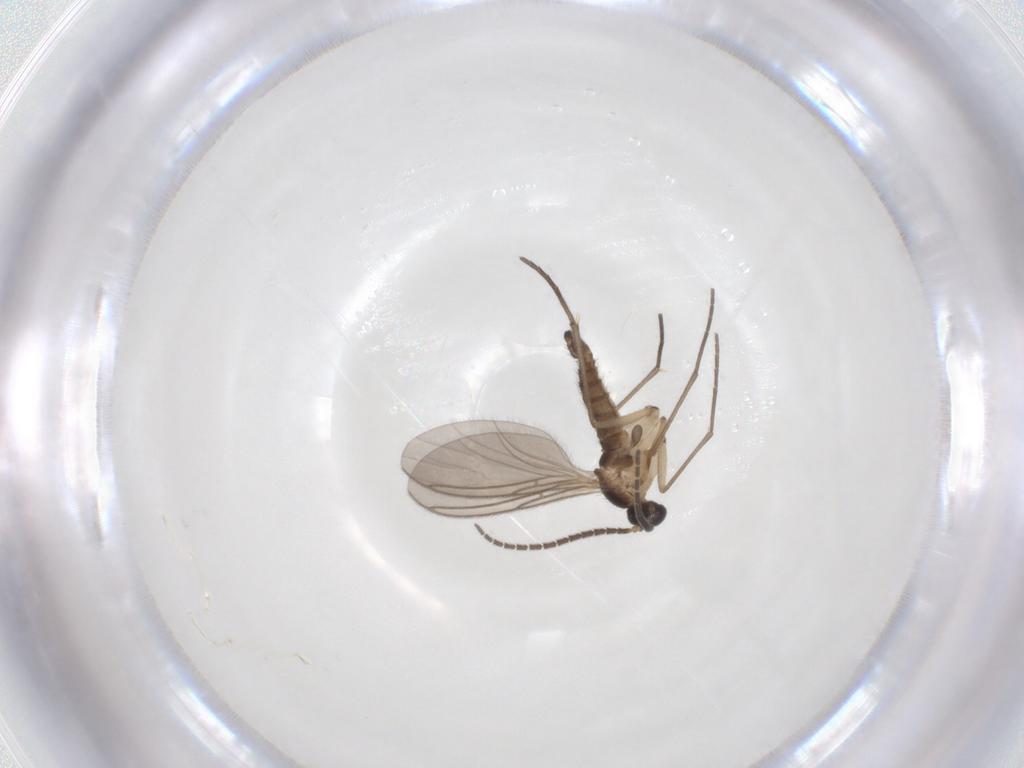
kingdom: Animalia
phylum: Arthropoda
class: Insecta
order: Diptera
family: Sciaridae
